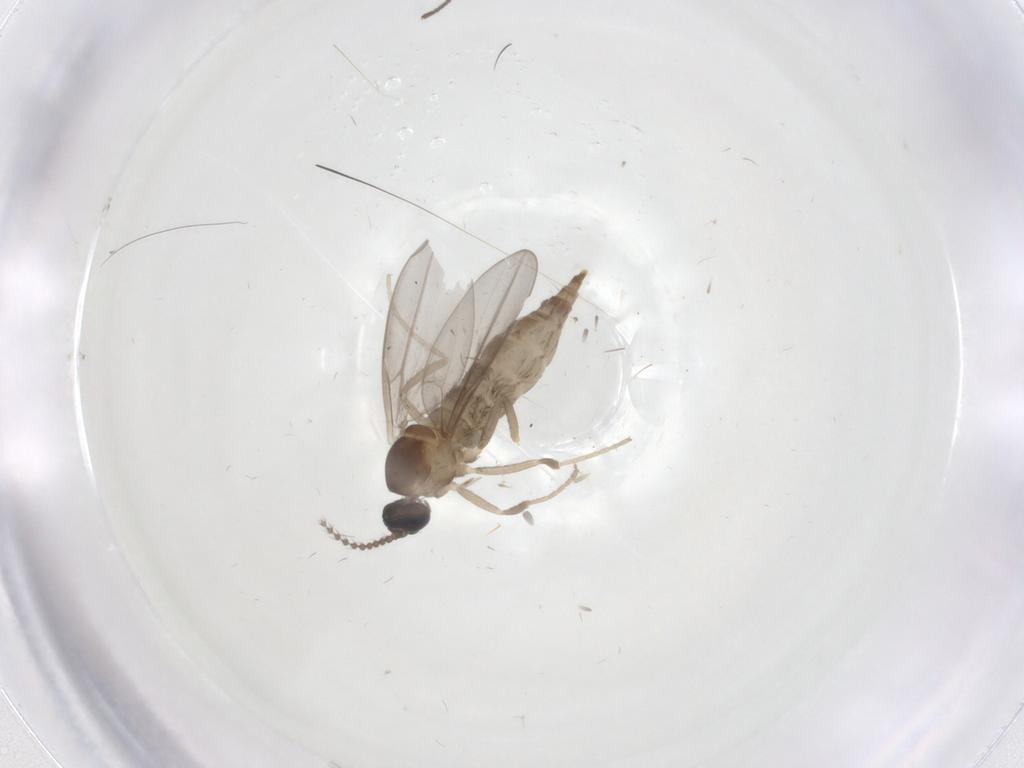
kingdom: Animalia
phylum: Arthropoda
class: Insecta
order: Diptera
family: Cecidomyiidae
